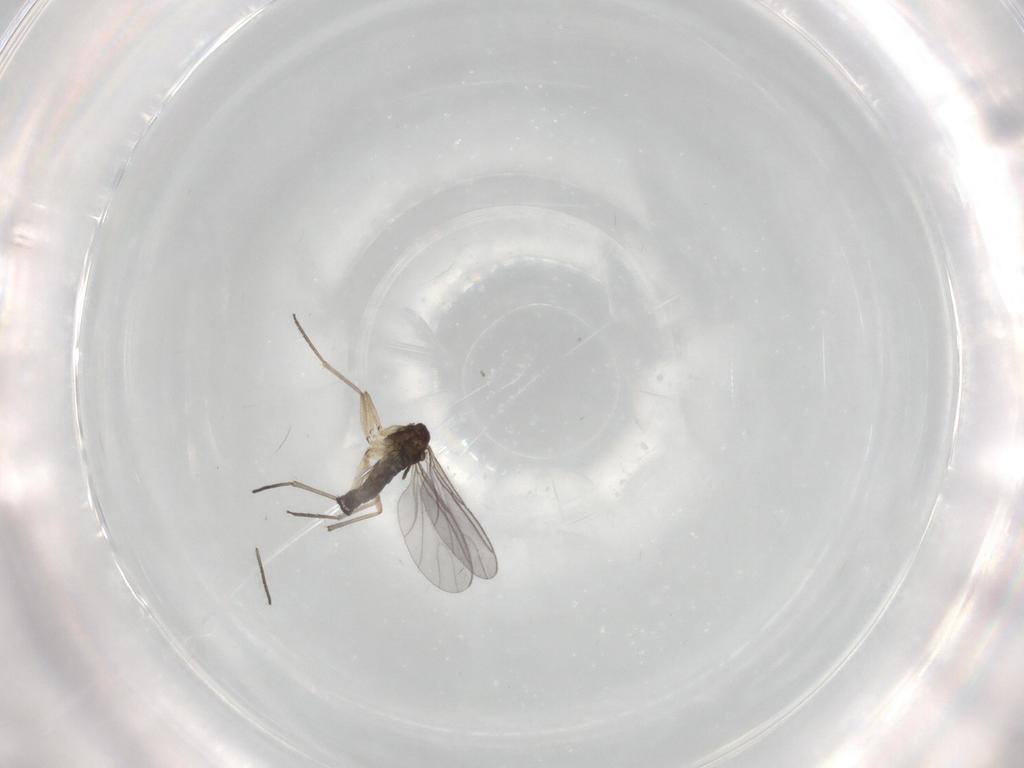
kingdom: Animalia
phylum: Arthropoda
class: Insecta
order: Diptera
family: Sciaridae
